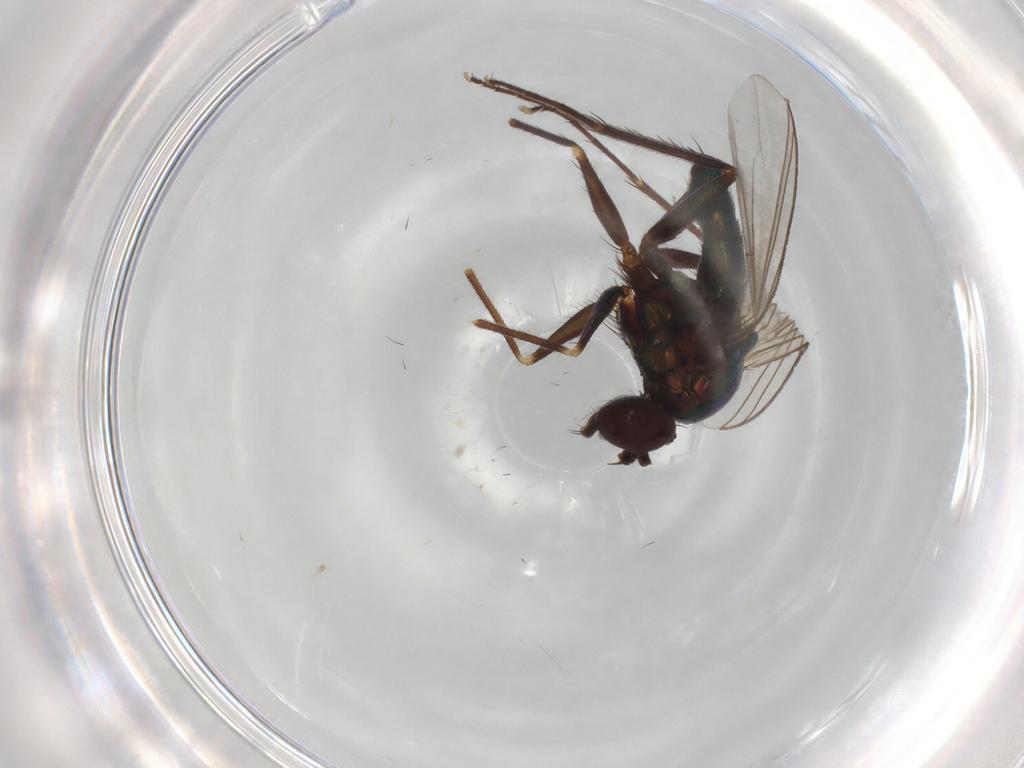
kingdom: Animalia
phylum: Arthropoda
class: Insecta
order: Diptera
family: Dolichopodidae
